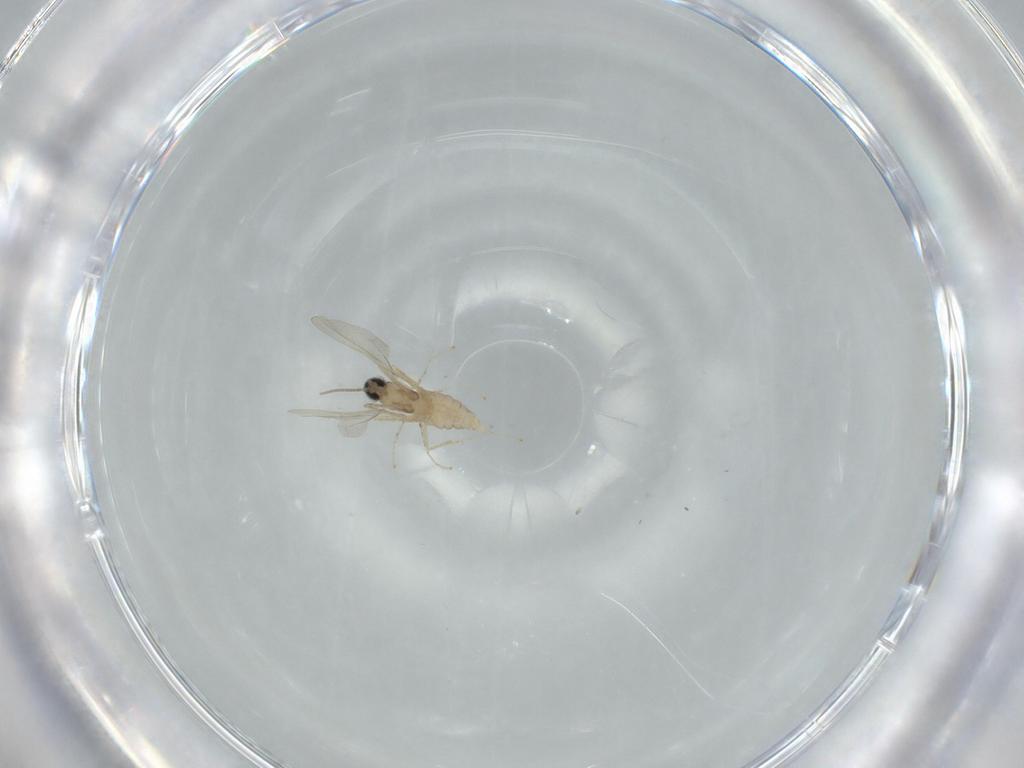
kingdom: Animalia
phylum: Arthropoda
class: Insecta
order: Diptera
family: Cecidomyiidae
